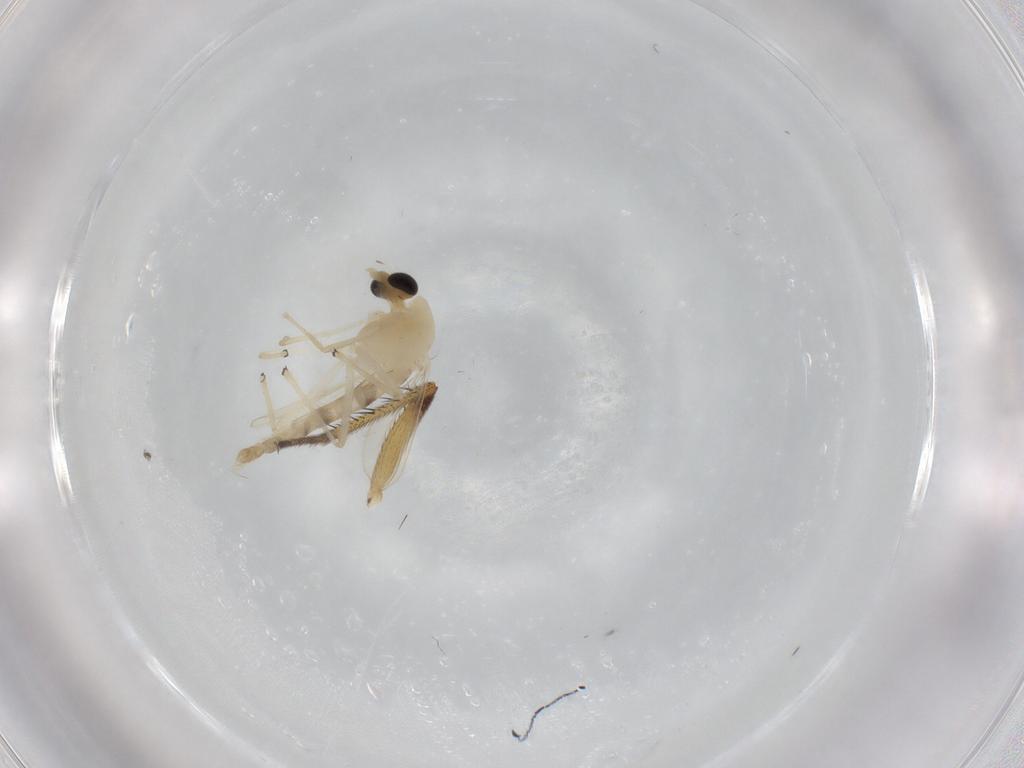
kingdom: Animalia
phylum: Arthropoda
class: Insecta
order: Diptera
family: Chironomidae
